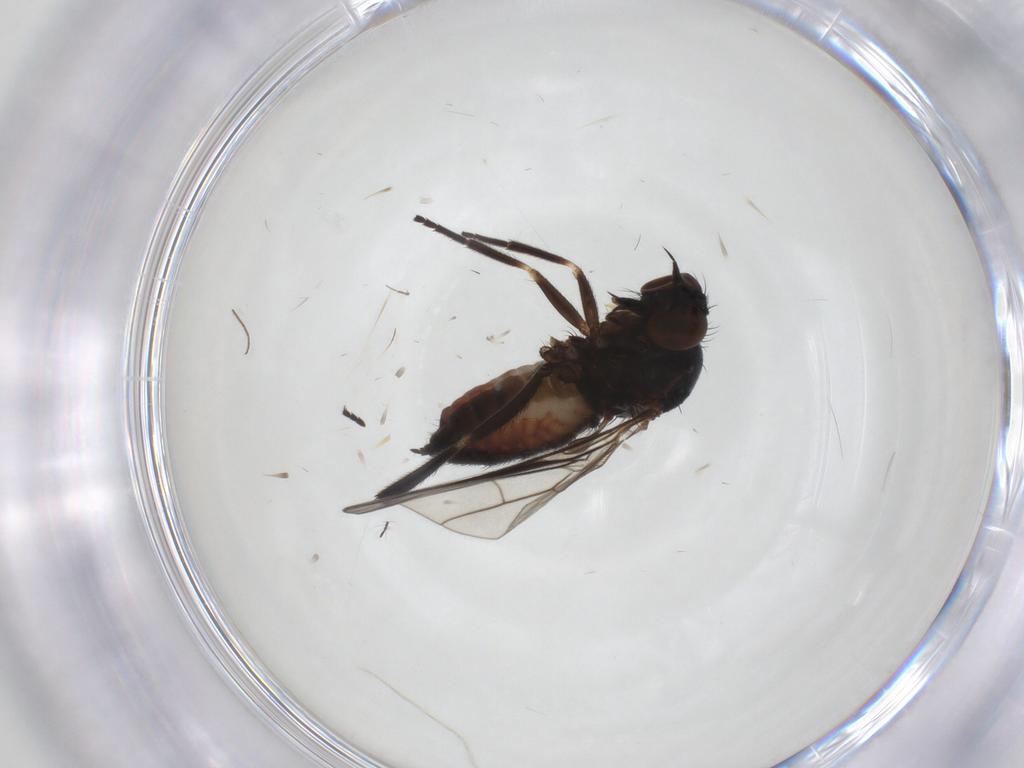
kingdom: Animalia
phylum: Arthropoda
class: Insecta
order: Diptera
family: Empididae
